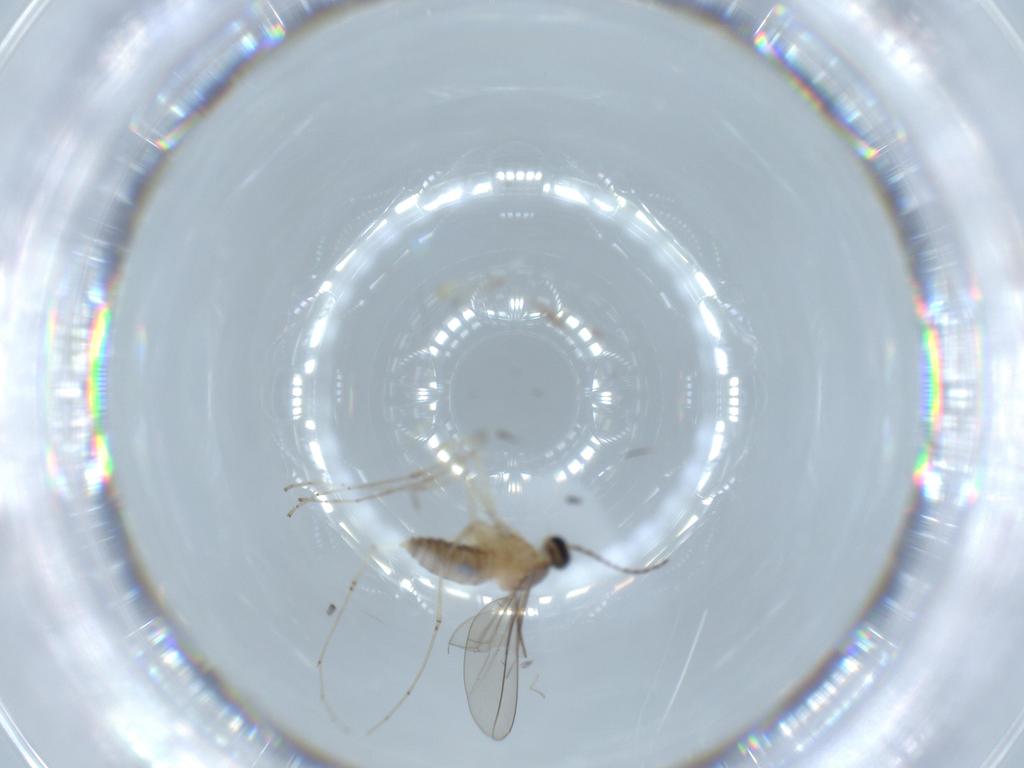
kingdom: Animalia
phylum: Arthropoda
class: Insecta
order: Diptera
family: Cecidomyiidae
